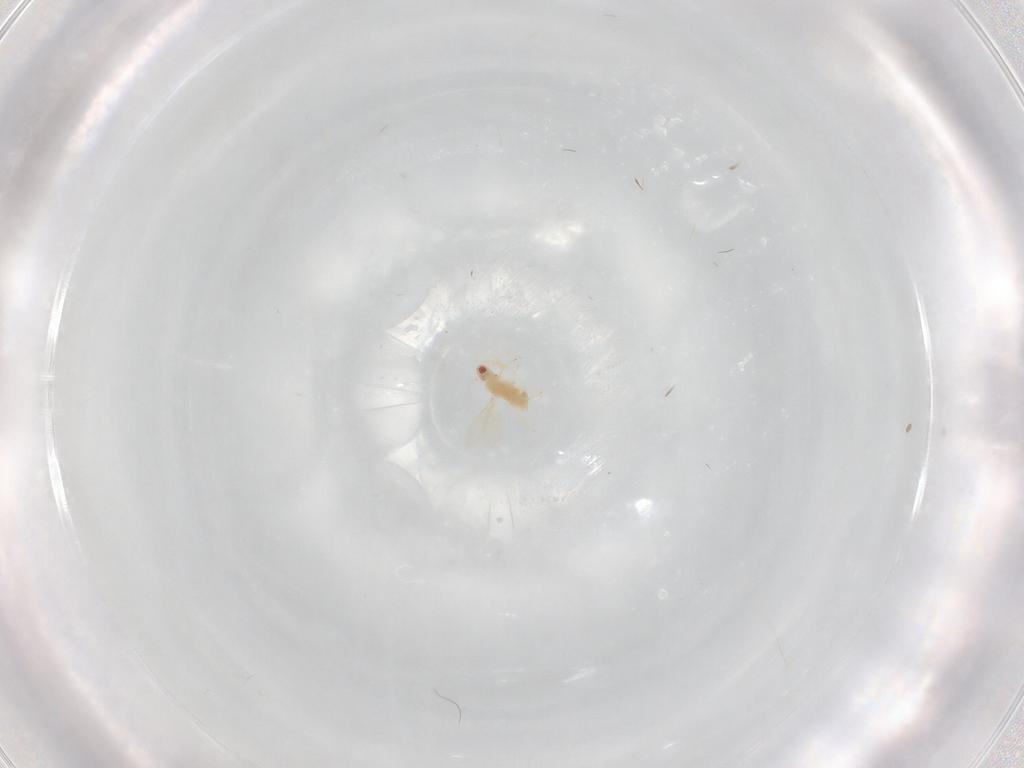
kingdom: Animalia
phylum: Arthropoda
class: Insecta
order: Hymenoptera
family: Aphelinidae
